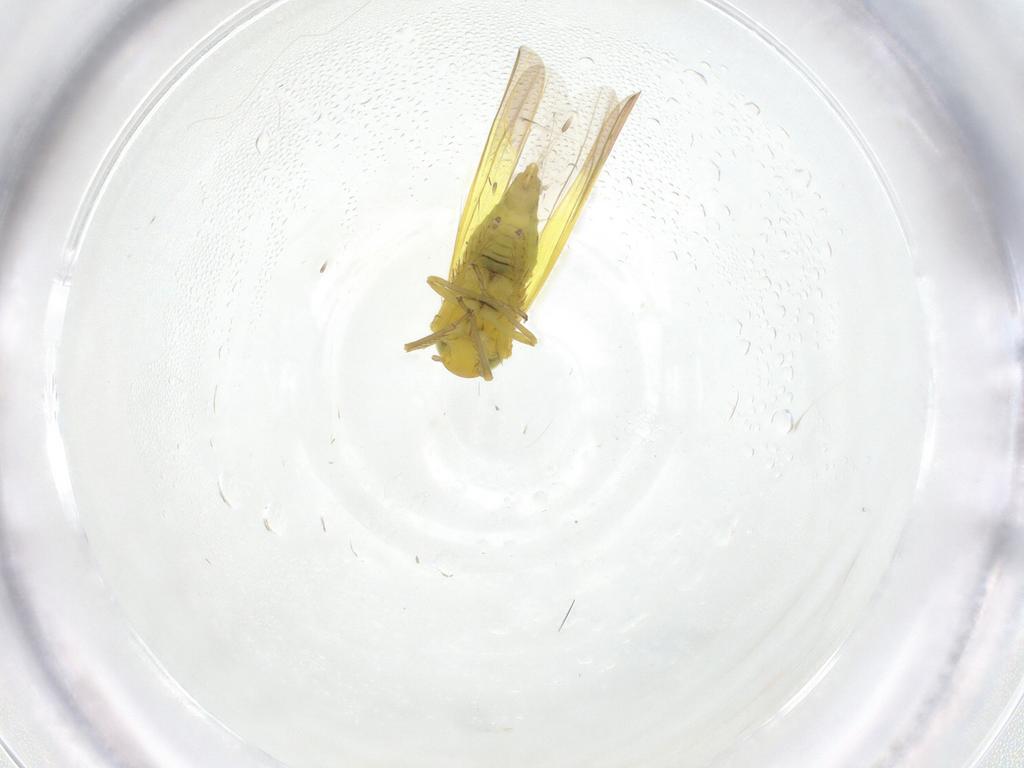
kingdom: Animalia
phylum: Arthropoda
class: Insecta
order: Hemiptera
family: Cicadellidae
